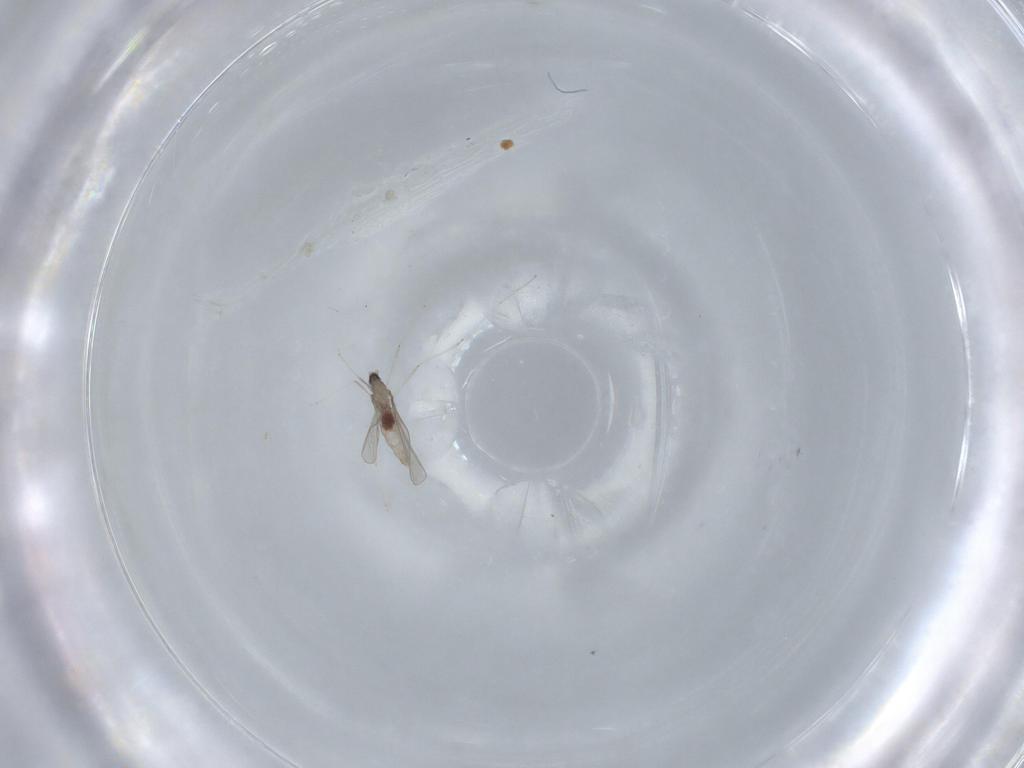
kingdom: Animalia
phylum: Arthropoda
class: Insecta
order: Diptera
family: Cecidomyiidae
